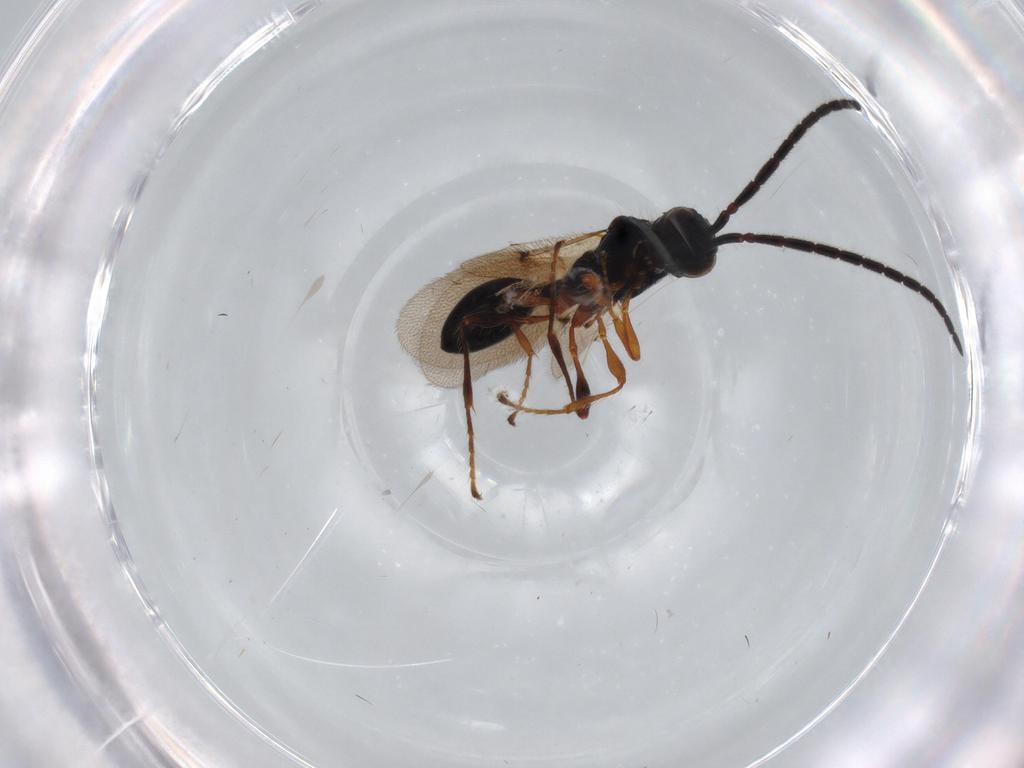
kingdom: Animalia
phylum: Arthropoda
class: Insecta
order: Hymenoptera
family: Diapriidae
